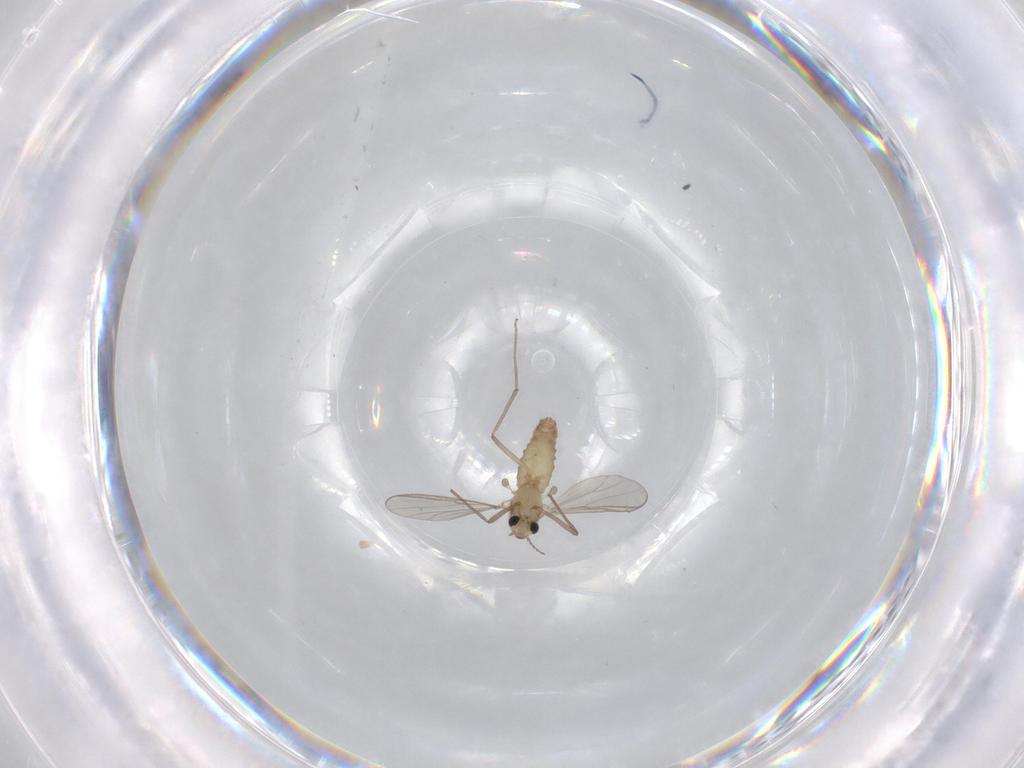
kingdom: Animalia
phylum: Arthropoda
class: Insecta
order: Diptera
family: Chironomidae
